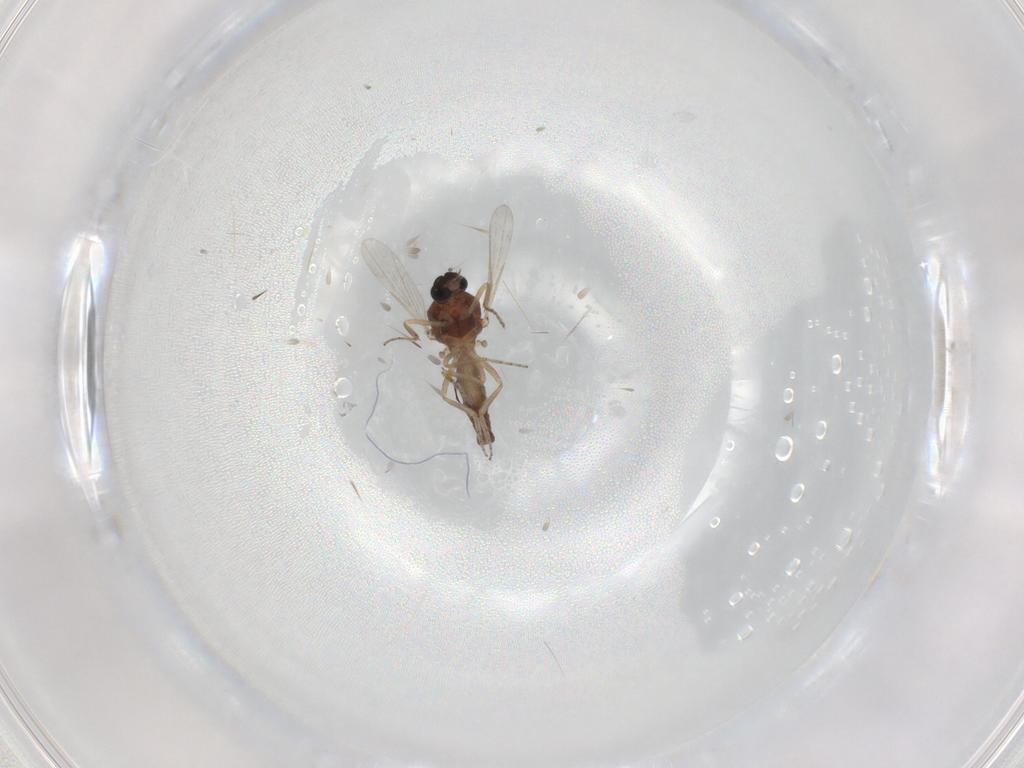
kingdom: Animalia
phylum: Arthropoda
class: Insecta
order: Diptera
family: Ceratopogonidae
